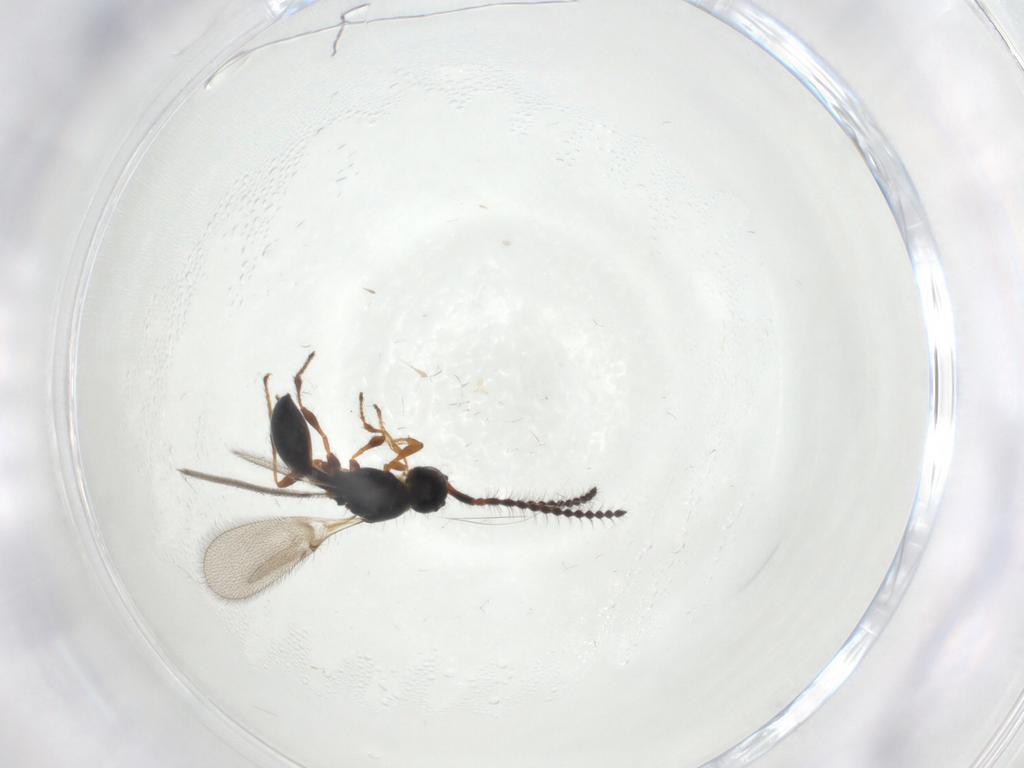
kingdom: Animalia
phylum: Arthropoda
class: Insecta
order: Hymenoptera
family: Diapriidae
